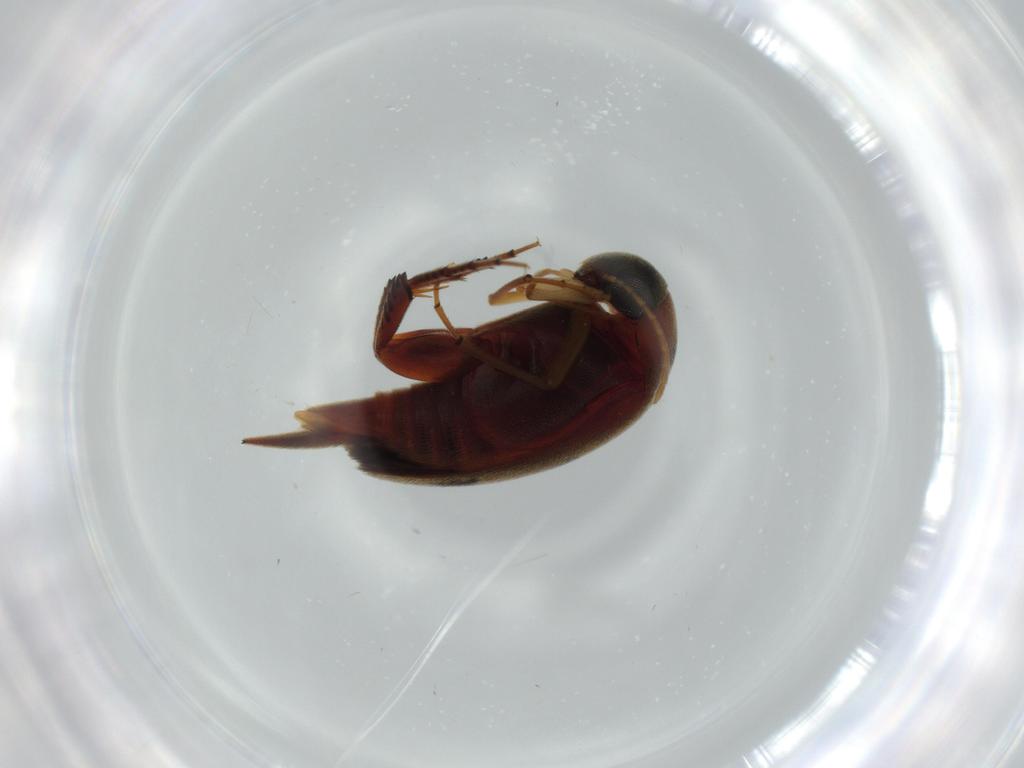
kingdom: Animalia
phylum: Arthropoda
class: Insecta
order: Coleoptera
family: Mordellidae
